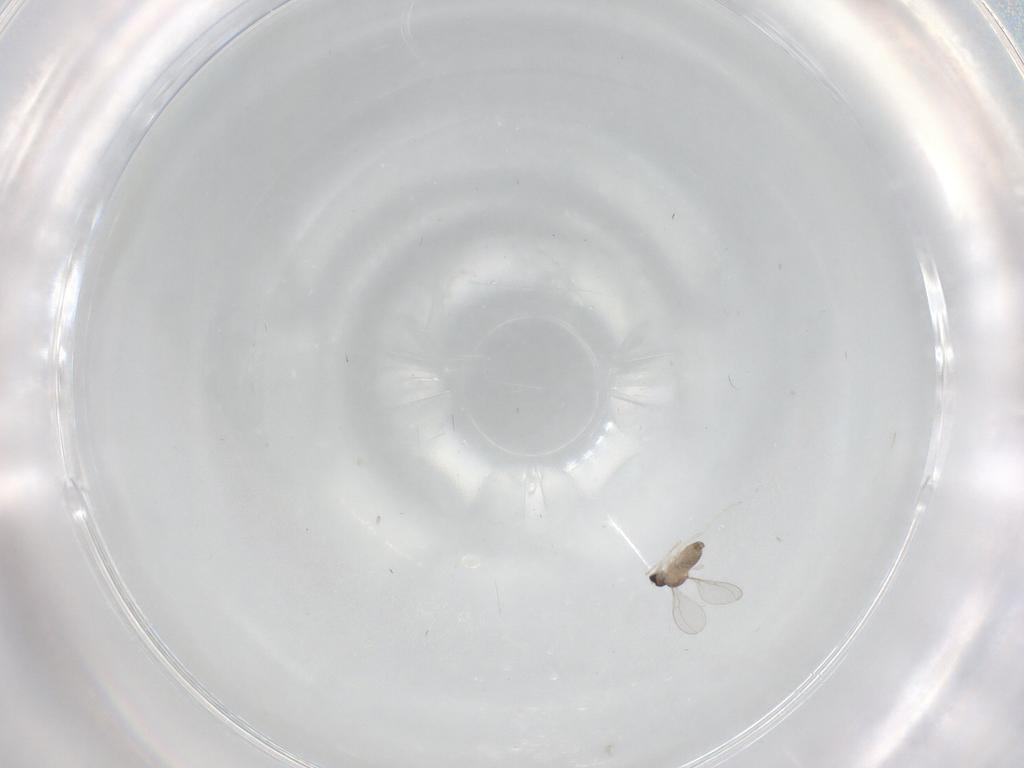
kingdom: Animalia
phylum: Arthropoda
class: Insecta
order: Diptera
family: Cecidomyiidae
